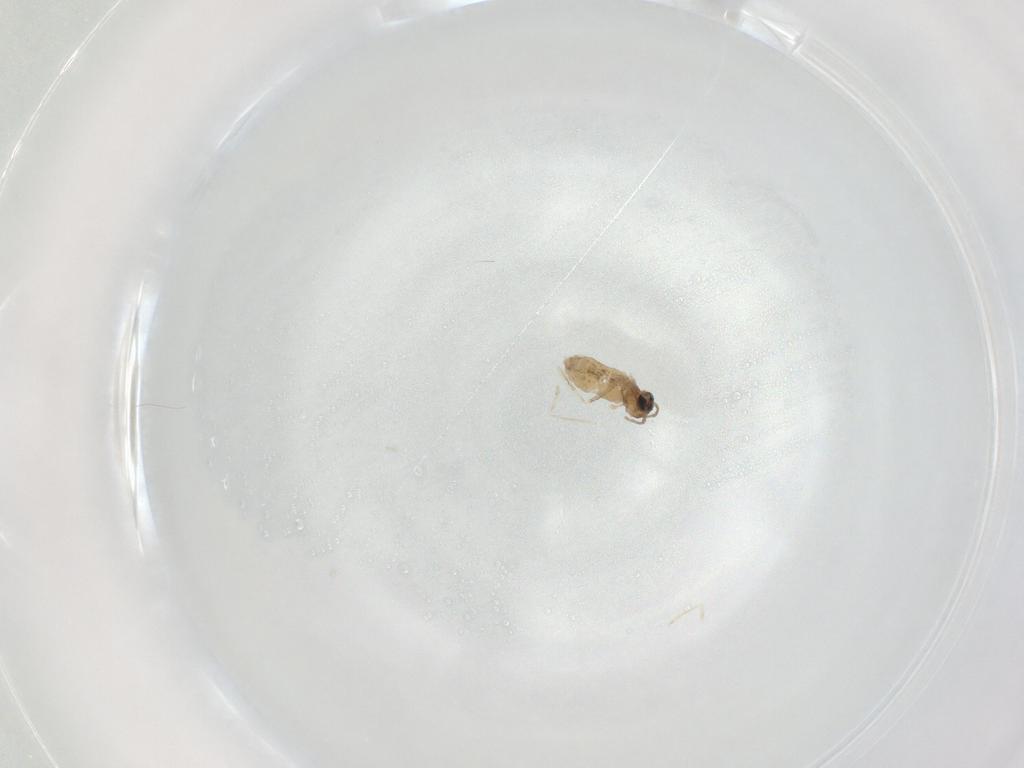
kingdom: Animalia
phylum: Arthropoda
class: Insecta
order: Diptera
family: Cecidomyiidae
